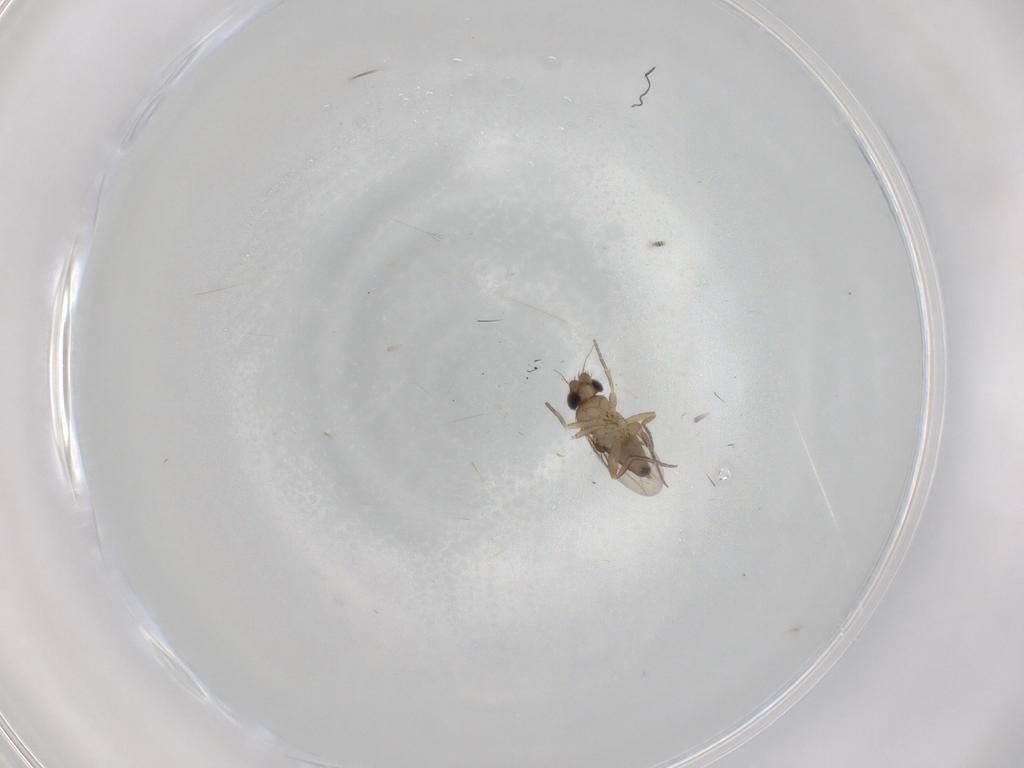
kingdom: Animalia
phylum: Arthropoda
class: Insecta
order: Diptera
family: Phoridae
